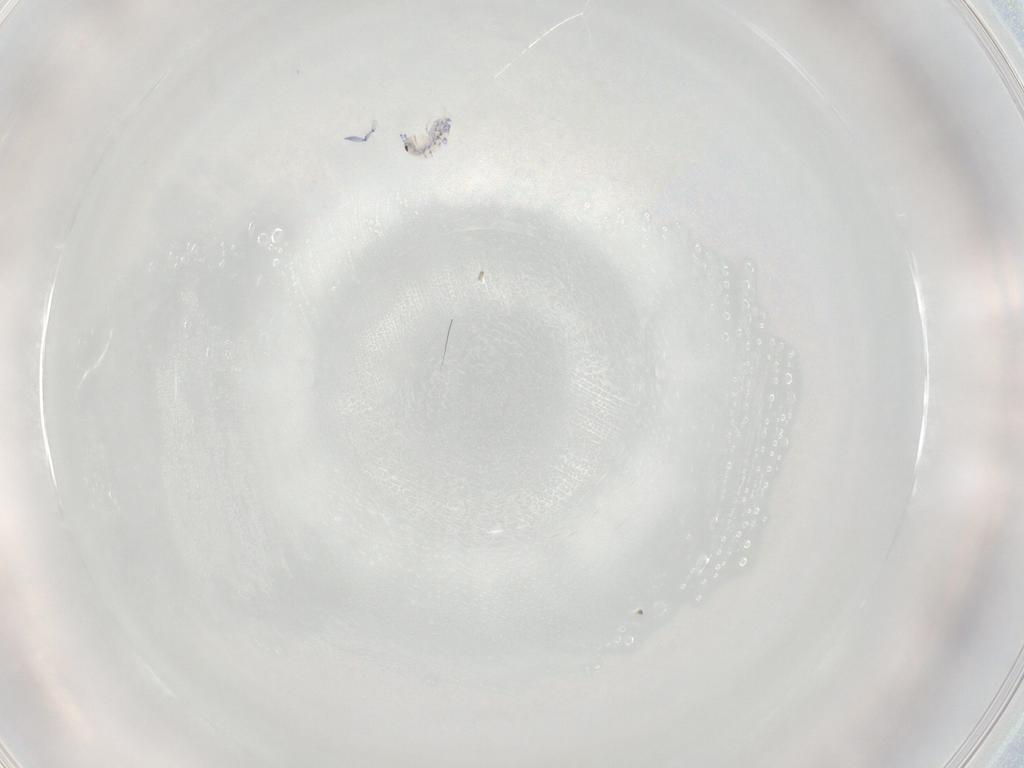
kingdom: Animalia
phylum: Arthropoda
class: Collembola
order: Entomobryomorpha
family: Entomobryidae
